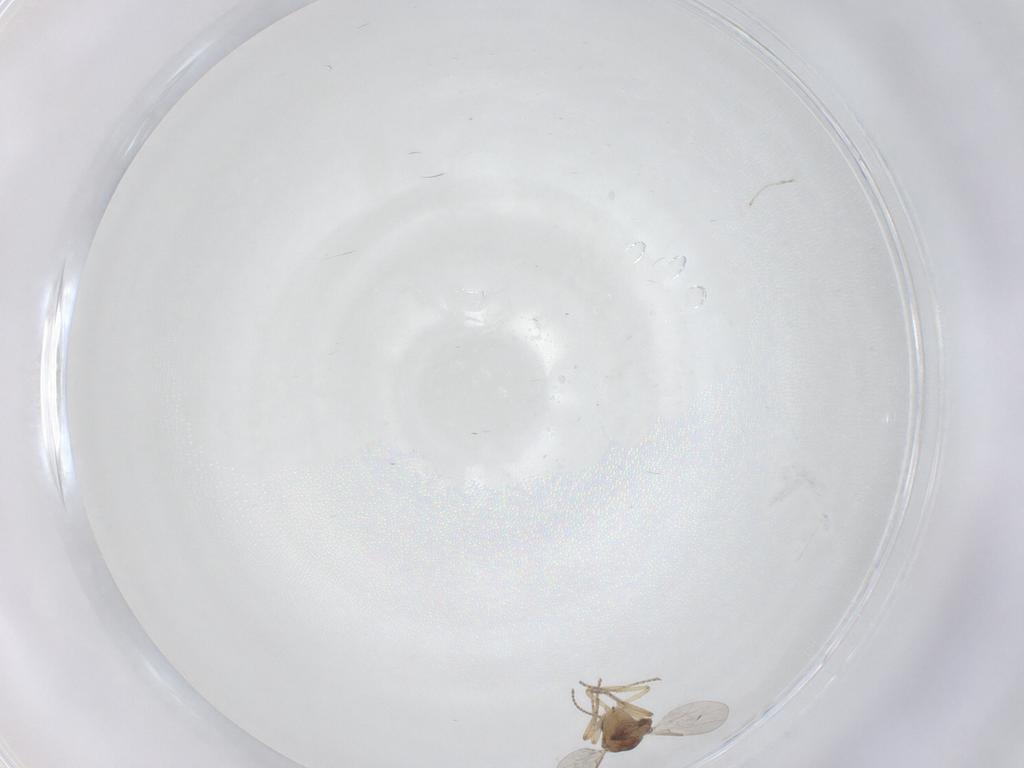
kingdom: Animalia
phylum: Arthropoda
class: Insecta
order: Diptera
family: Ceratopogonidae
